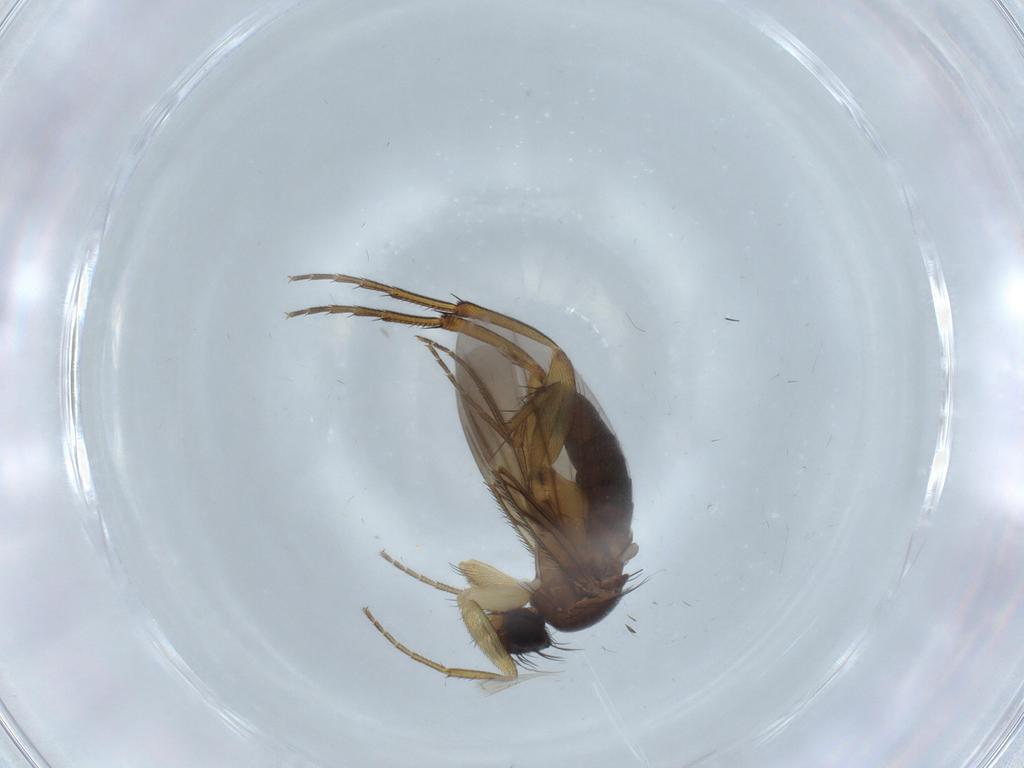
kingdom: Animalia
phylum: Arthropoda
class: Insecta
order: Diptera
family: Phoridae
